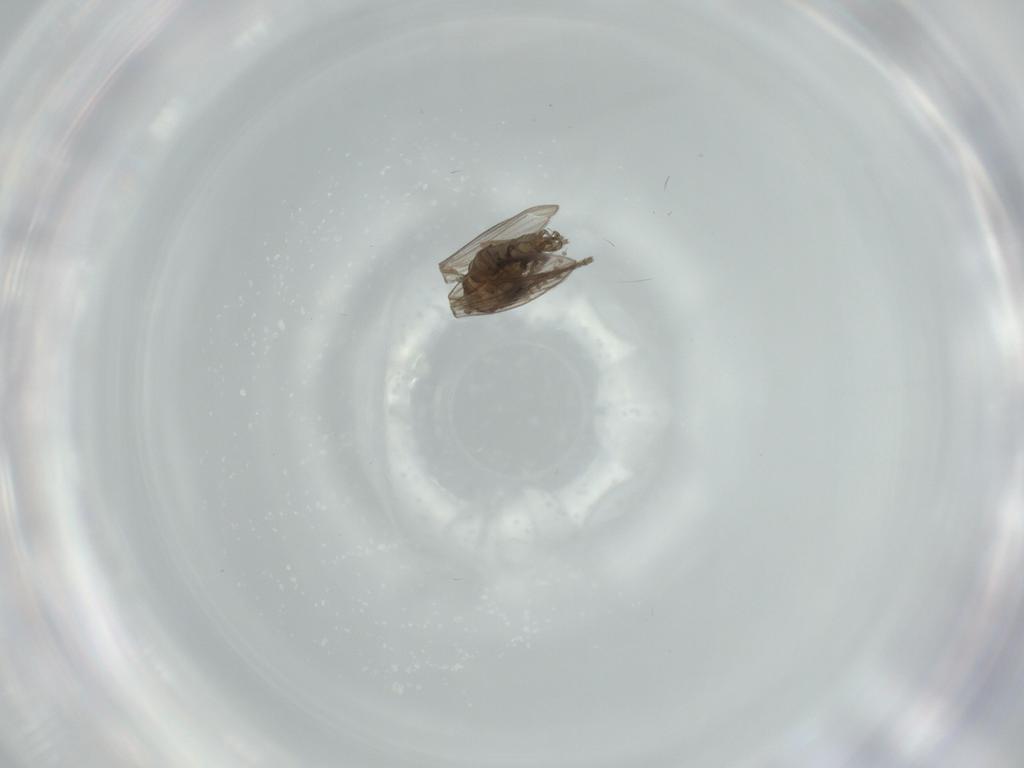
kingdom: Animalia
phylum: Arthropoda
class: Insecta
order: Diptera
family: Psychodidae
